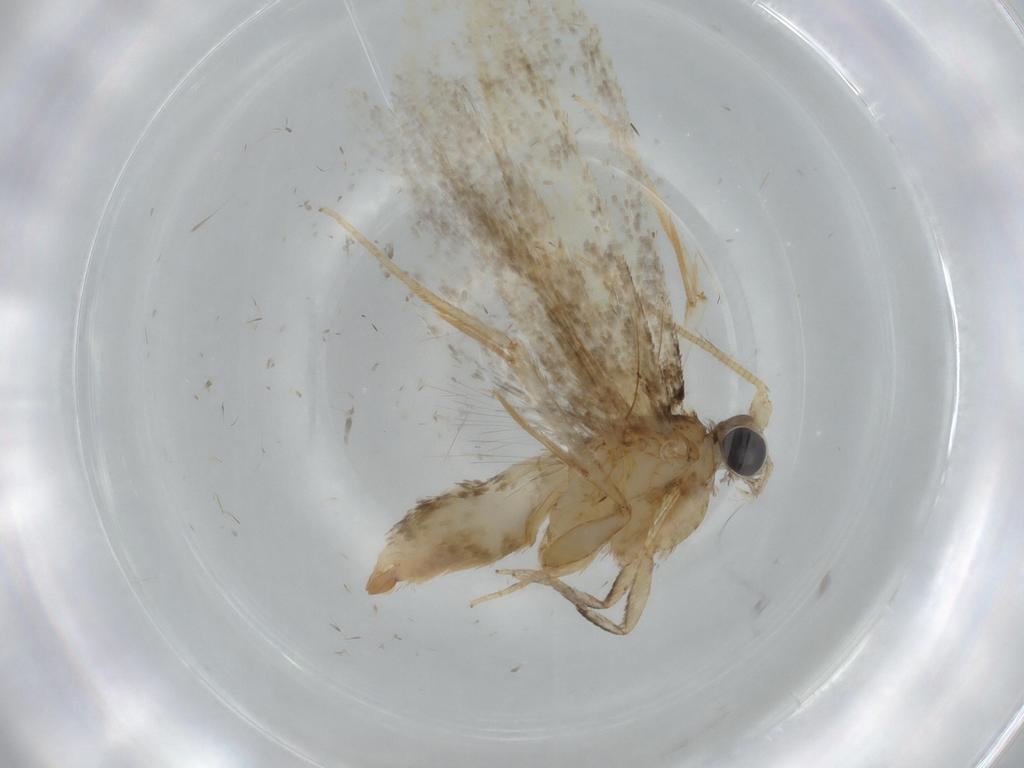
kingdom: Animalia
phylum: Arthropoda
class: Insecta
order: Lepidoptera
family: Tineidae
